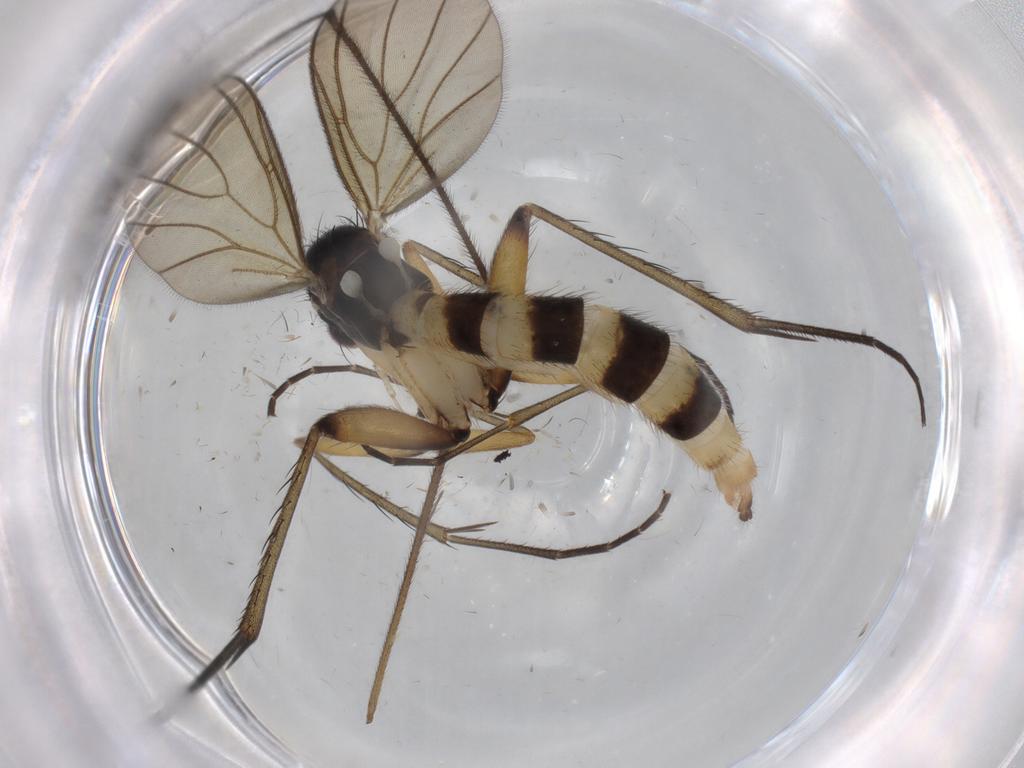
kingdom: Animalia
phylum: Arthropoda
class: Insecta
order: Diptera
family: Mycetophilidae
